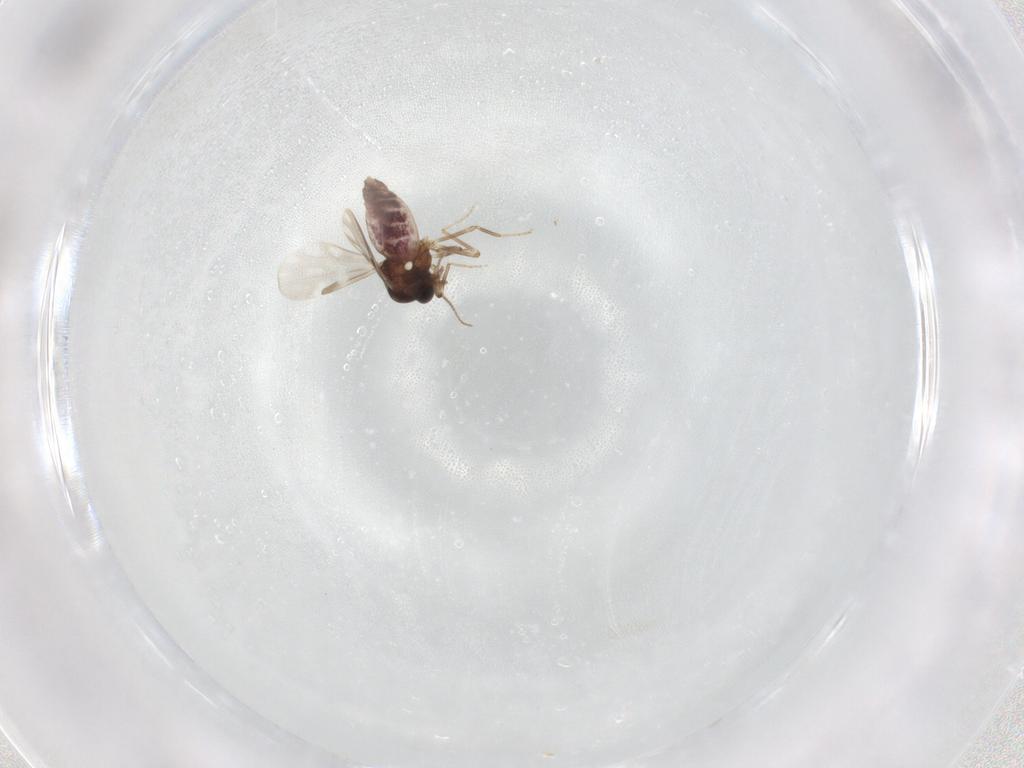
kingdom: Animalia
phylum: Arthropoda
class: Insecta
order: Diptera
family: Ceratopogonidae
